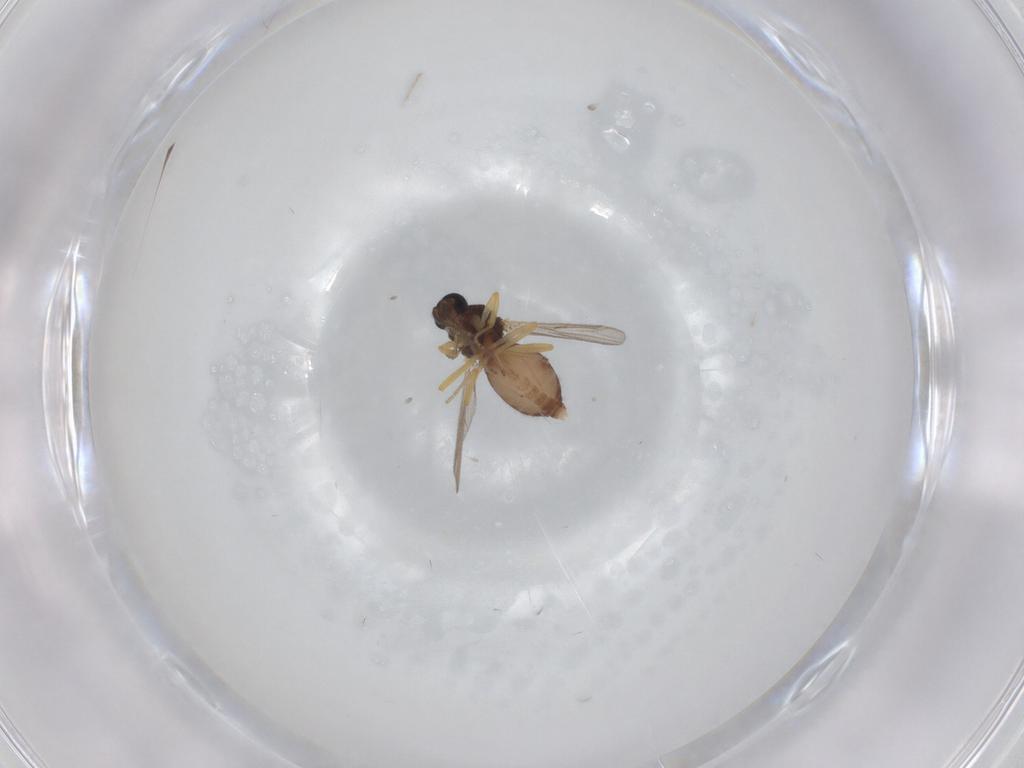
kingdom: Animalia
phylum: Arthropoda
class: Insecta
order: Diptera
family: Ceratopogonidae
